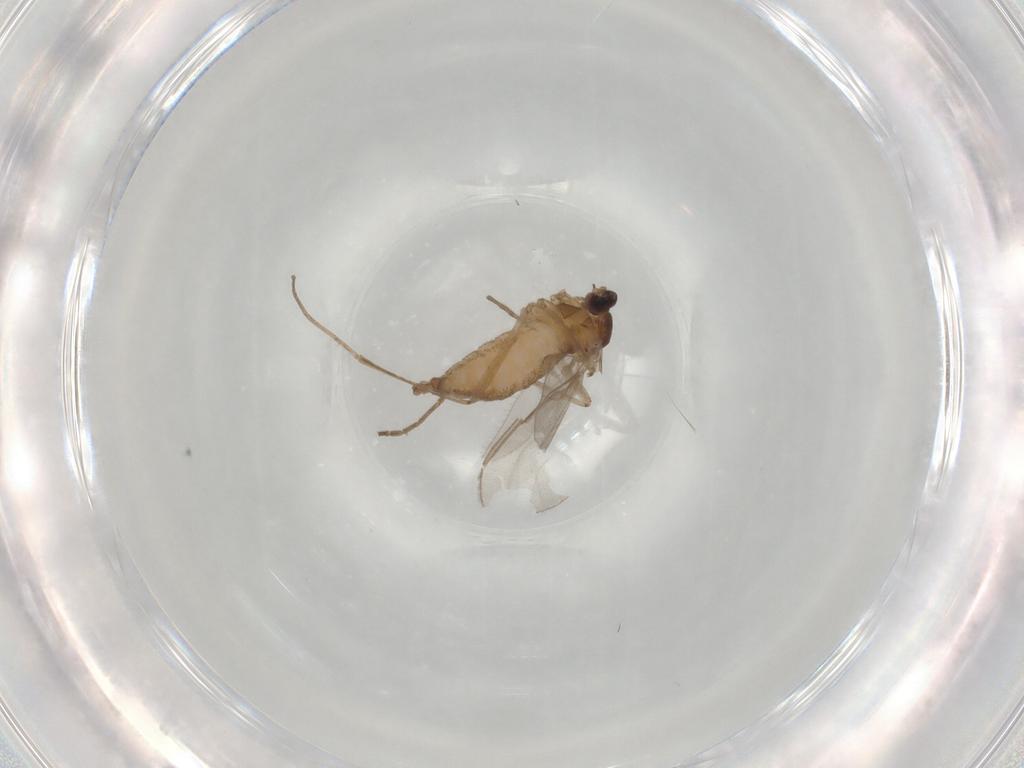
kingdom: Animalia
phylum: Arthropoda
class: Insecta
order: Diptera
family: Cecidomyiidae
